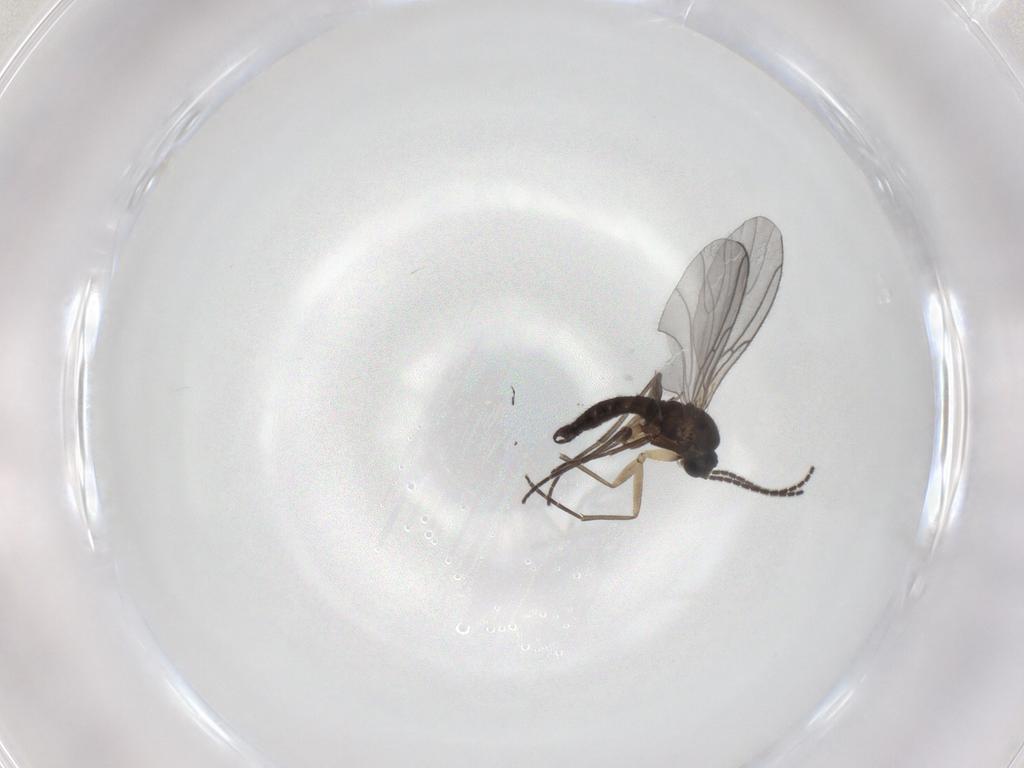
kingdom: Animalia
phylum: Arthropoda
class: Insecta
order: Diptera
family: Sciaridae
